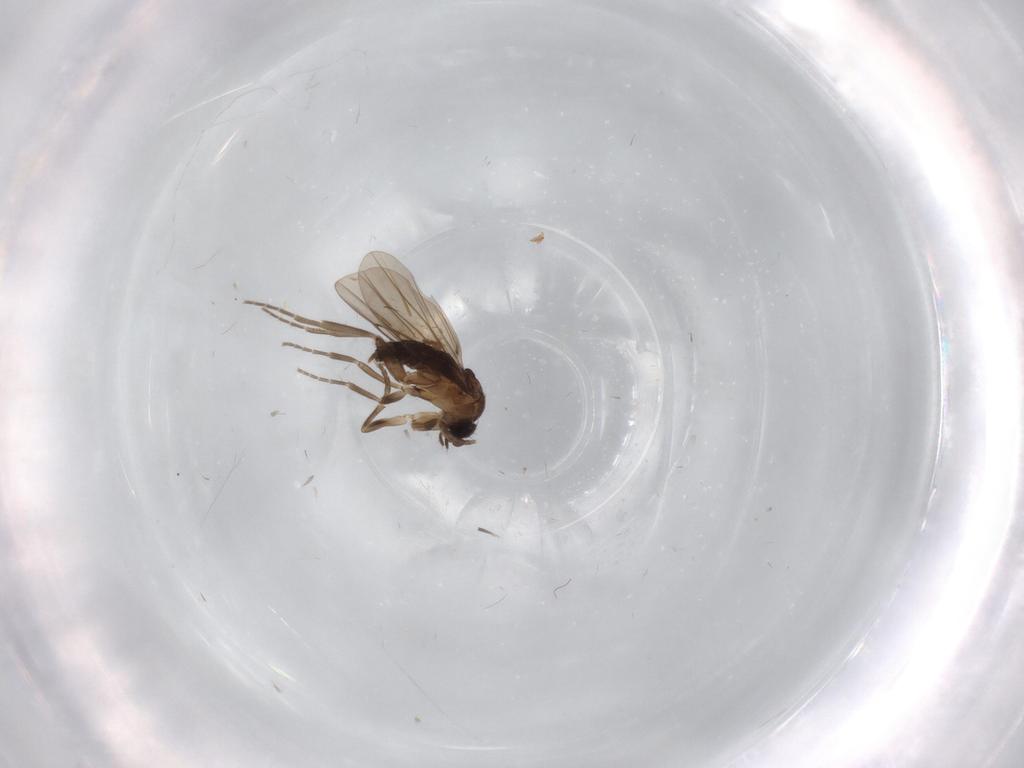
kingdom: Animalia
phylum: Arthropoda
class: Insecta
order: Diptera
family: Cecidomyiidae
